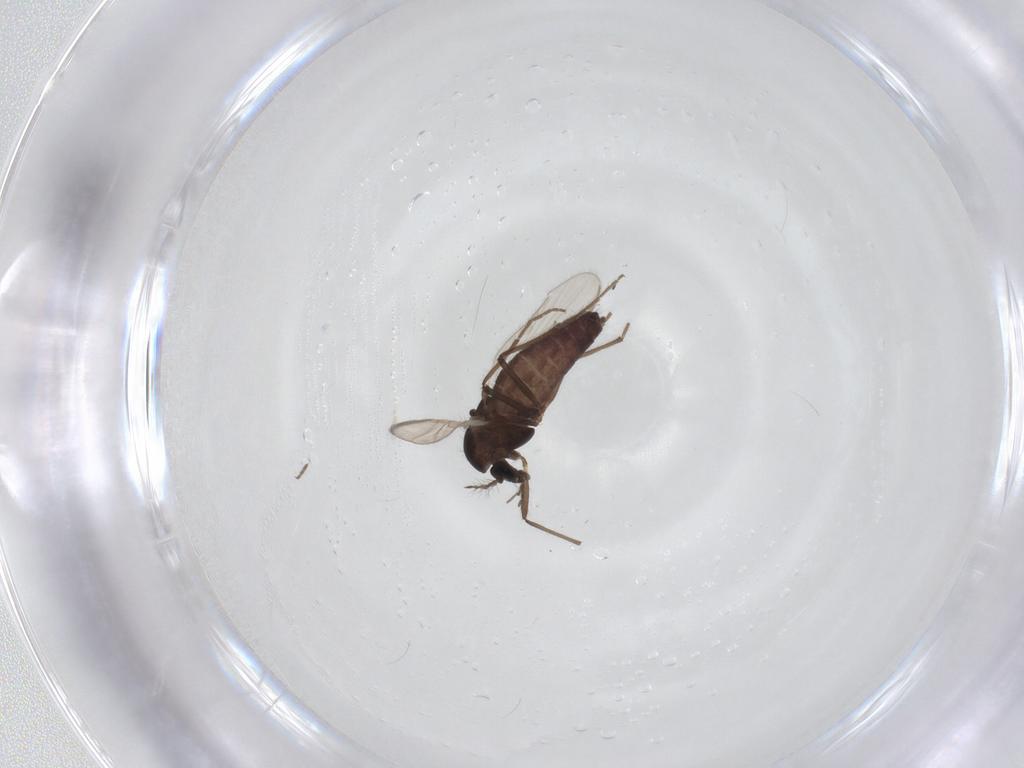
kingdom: Animalia
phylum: Arthropoda
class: Insecta
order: Diptera
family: Chironomidae
